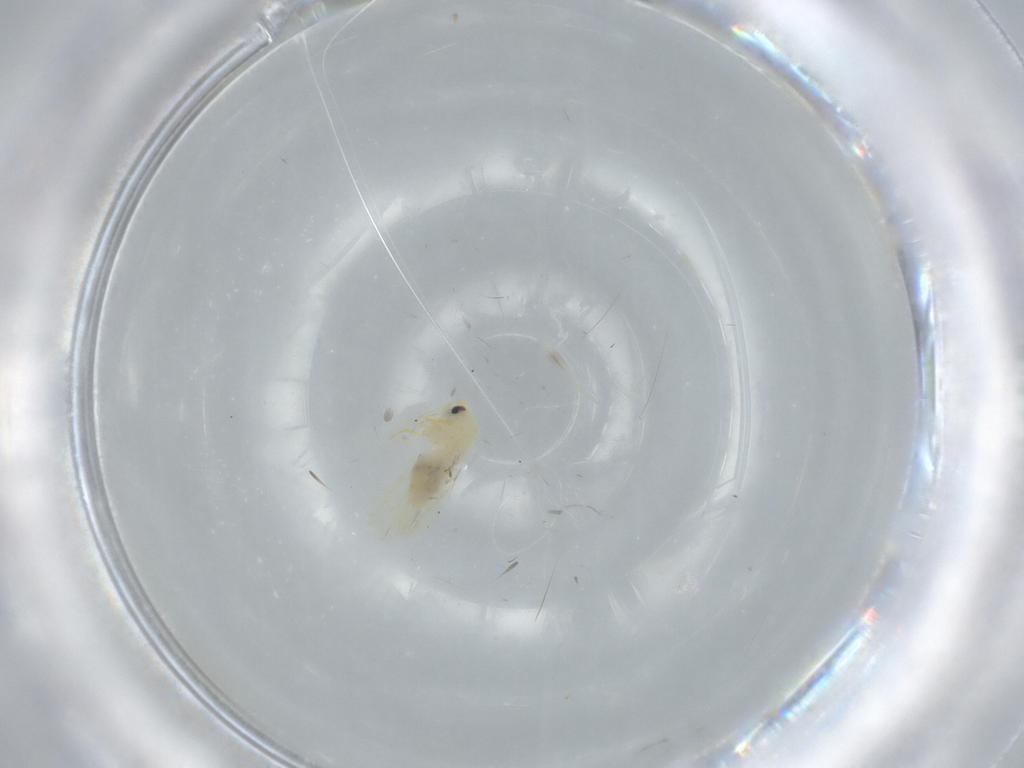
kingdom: Animalia
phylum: Arthropoda
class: Insecta
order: Hemiptera
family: Aleyrodidae
